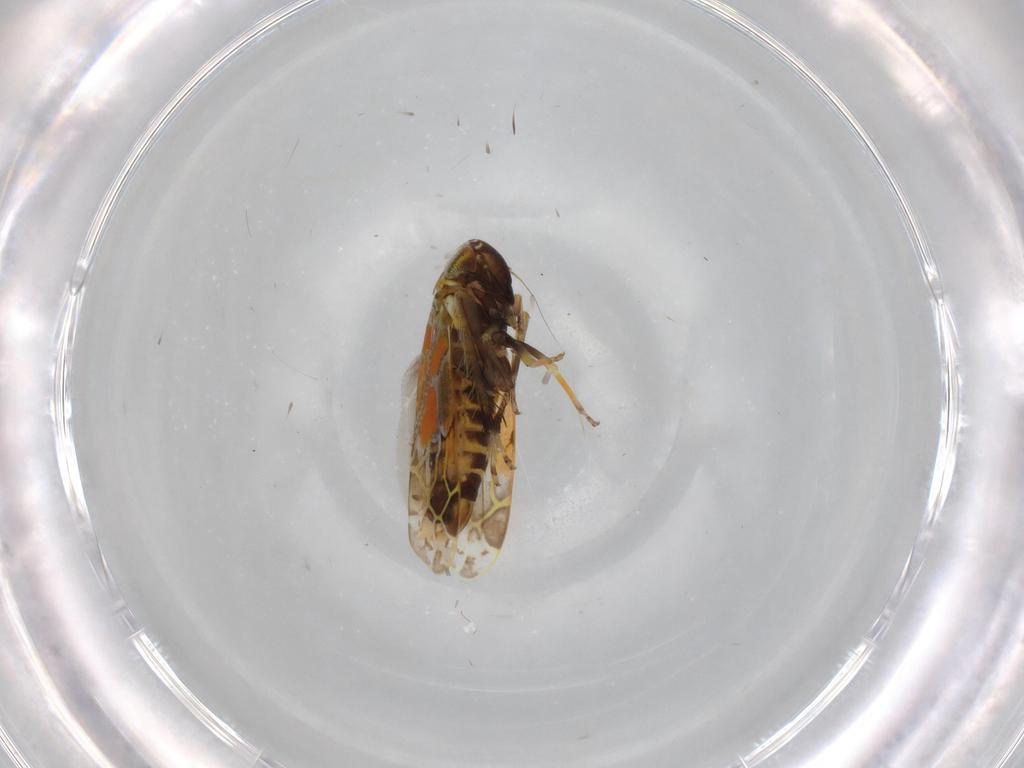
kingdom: Animalia
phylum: Arthropoda
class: Insecta
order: Hemiptera
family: Cicadellidae
